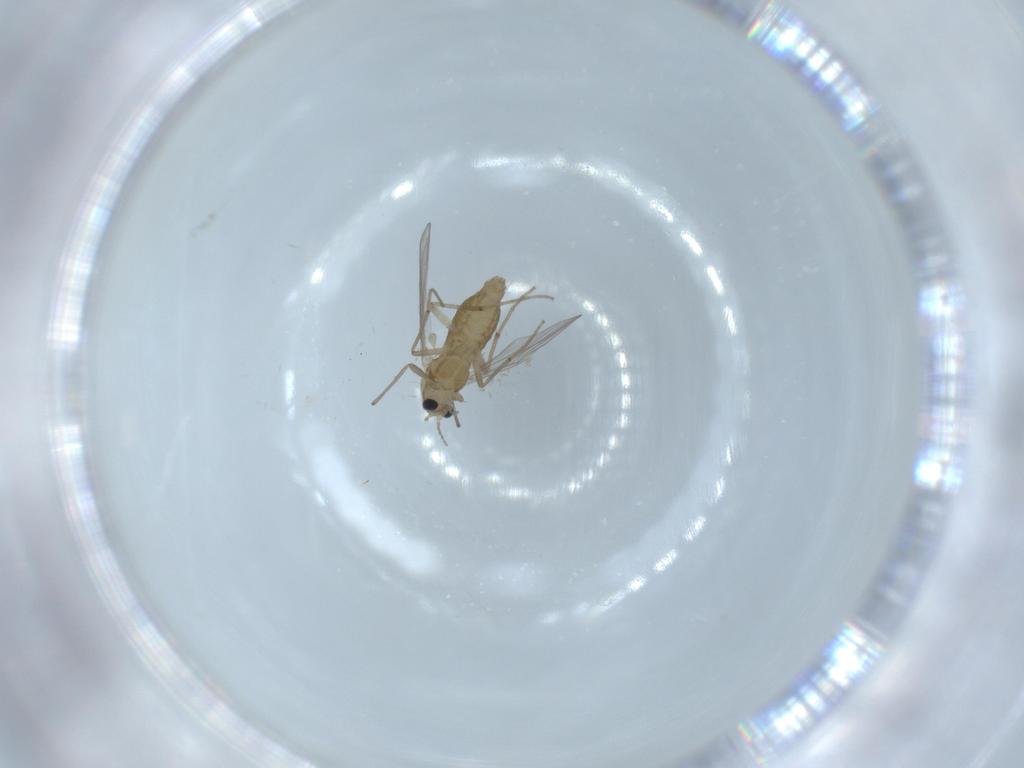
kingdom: Animalia
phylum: Arthropoda
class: Insecta
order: Diptera
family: Chironomidae
